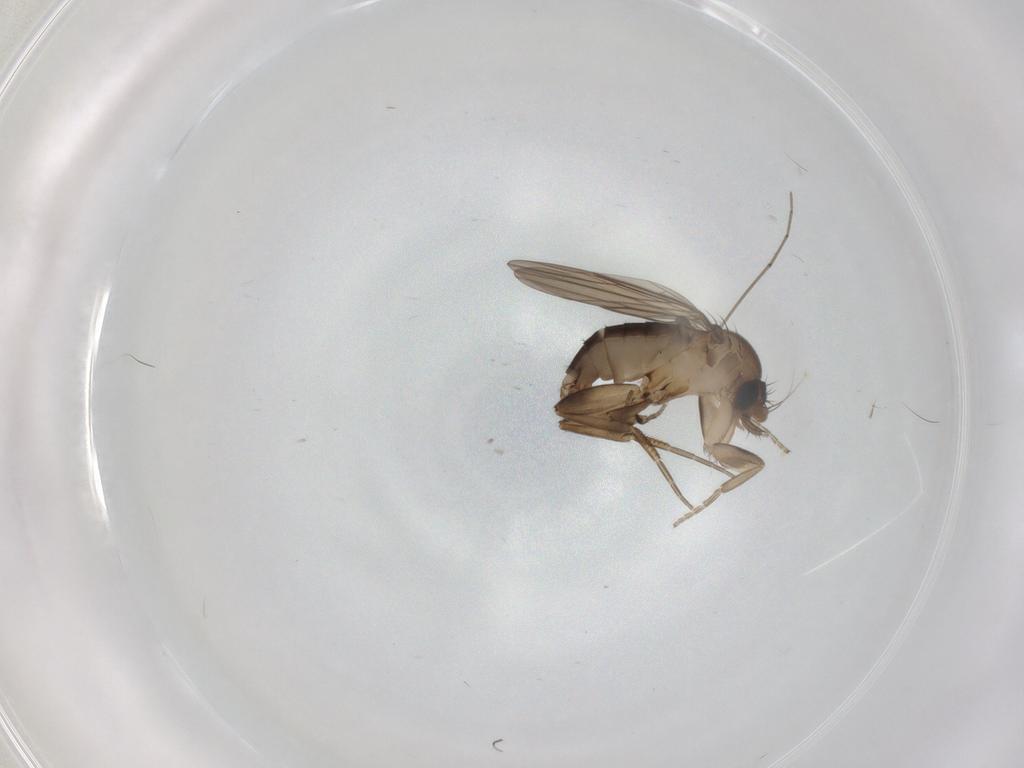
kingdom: Animalia
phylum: Arthropoda
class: Insecta
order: Diptera
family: Phoridae
